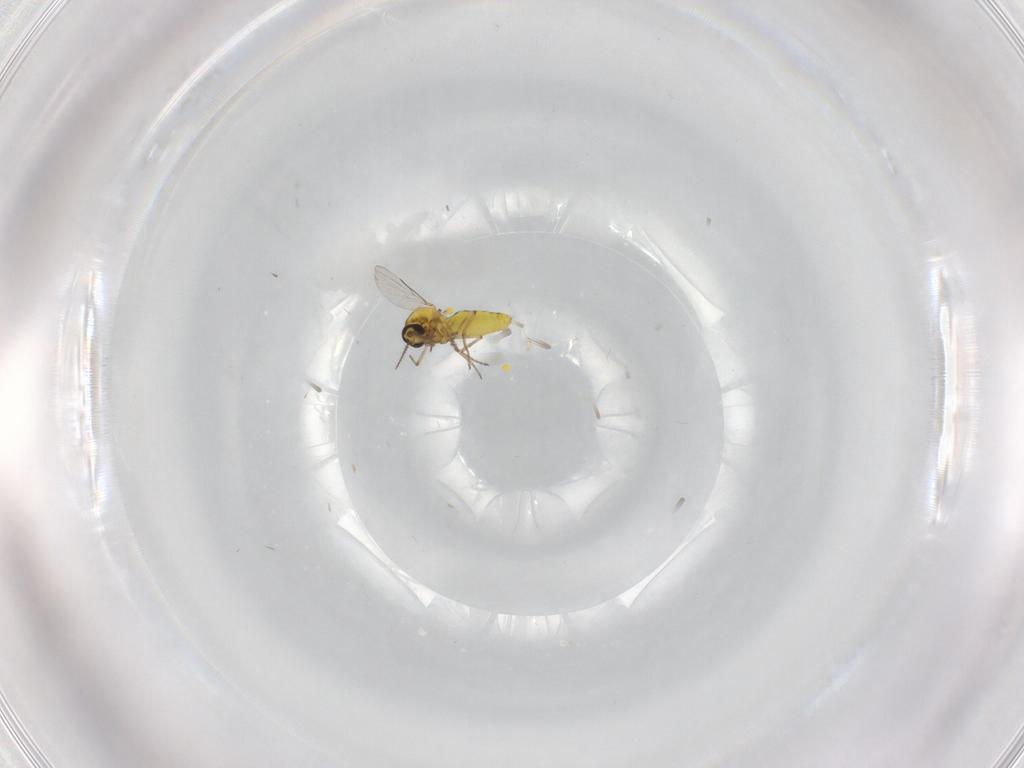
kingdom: Animalia
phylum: Arthropoda
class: Insecta
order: Diptera
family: Ceratopogonidae
